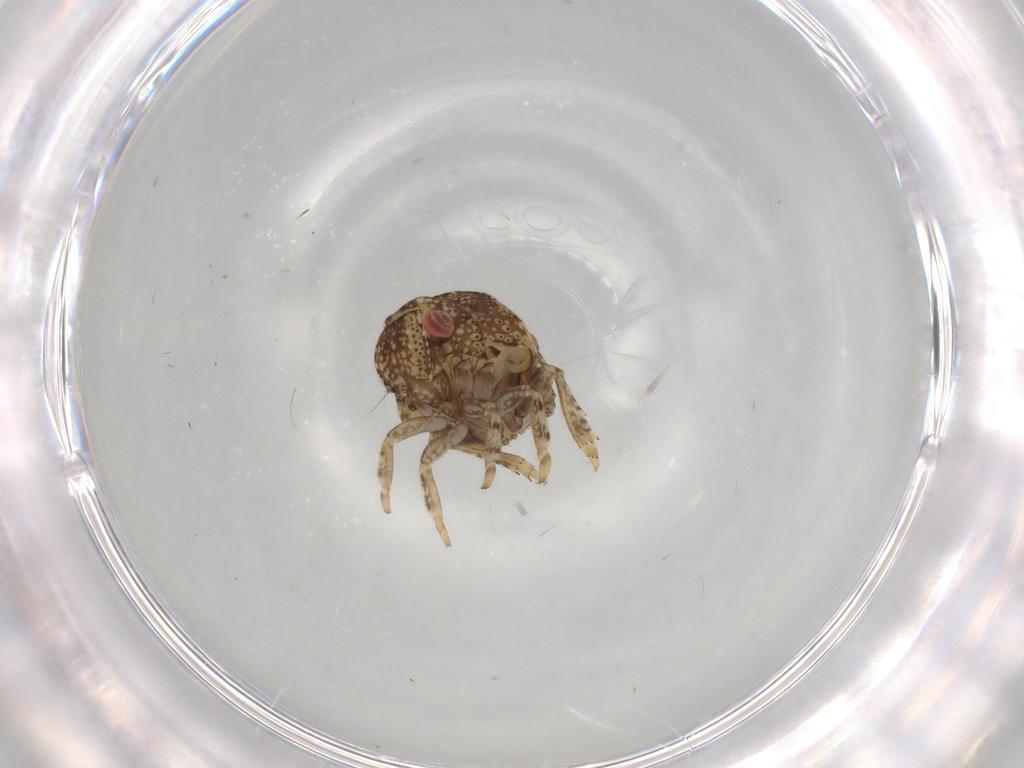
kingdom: Animalia
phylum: Arthropoda
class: Insecta
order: Hemiptera
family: Acanaloniidae
